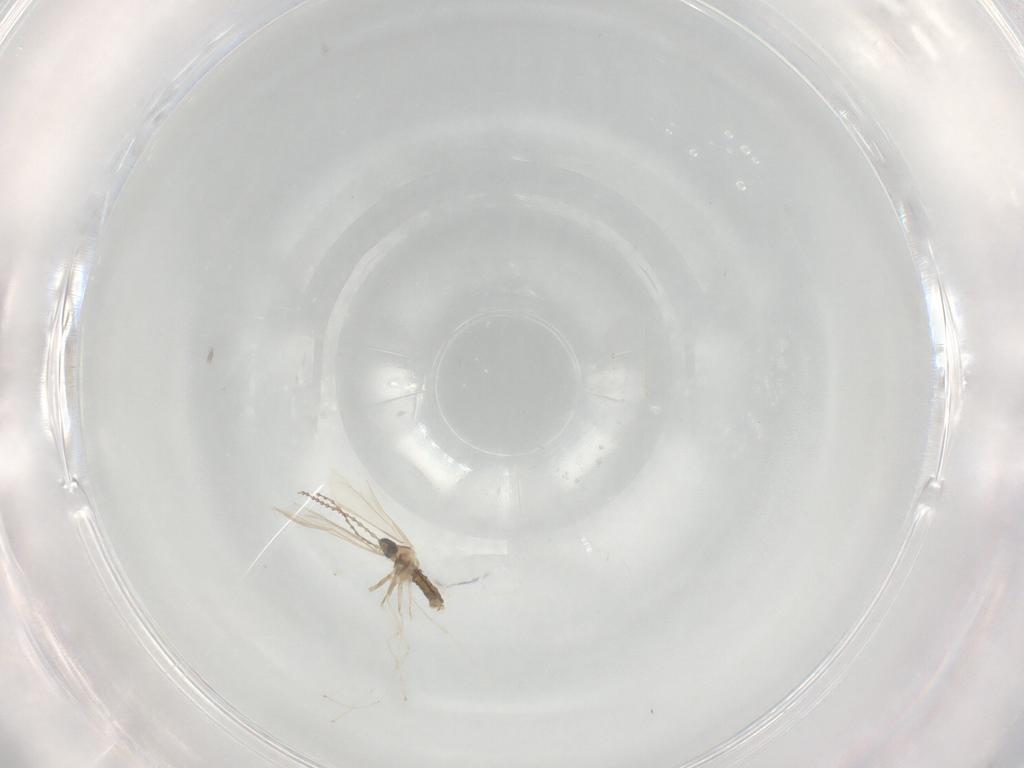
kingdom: Animalia
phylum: Arthropoda
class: Insecta
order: Diptera
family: Cecidomyiidae
